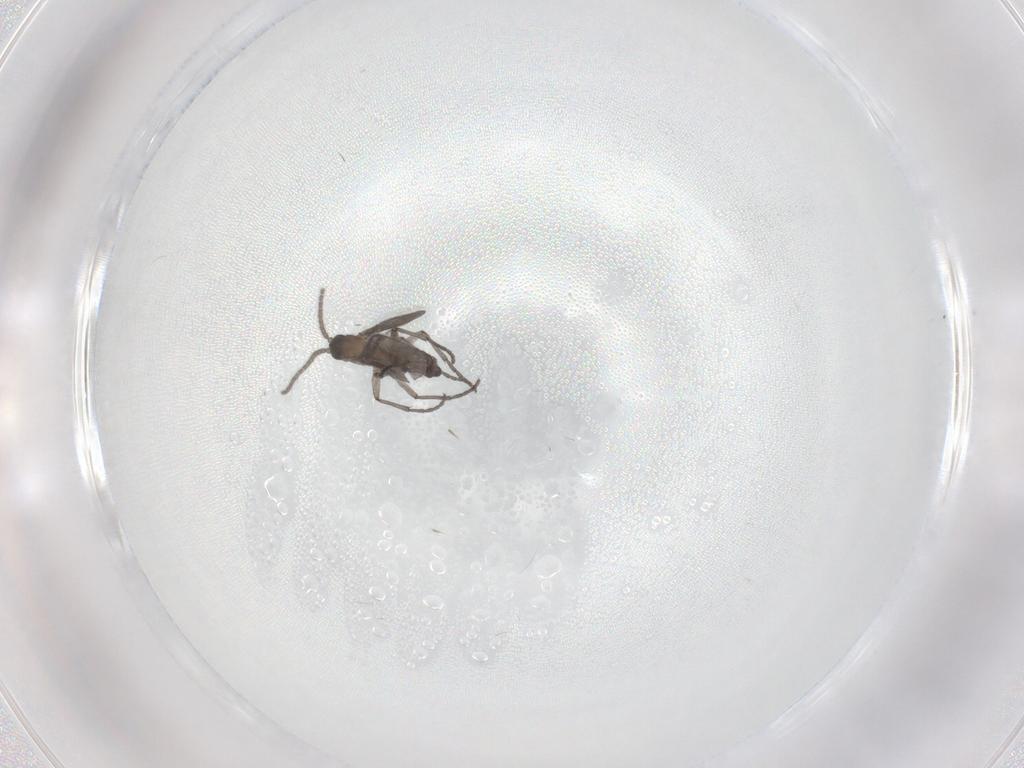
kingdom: Animalia
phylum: Arthropoda
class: Insecta
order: Diptera
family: Sciaridae
